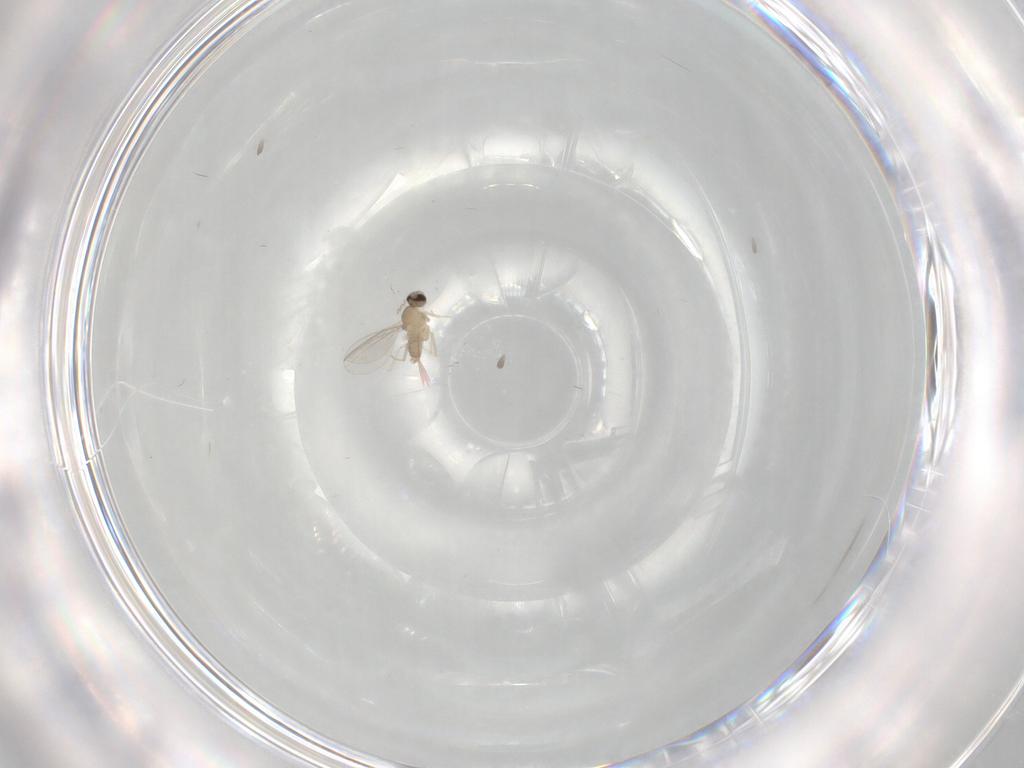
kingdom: Animalia
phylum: Arthropoda
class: Insecta
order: Diptera
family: Cecidomyiidae
